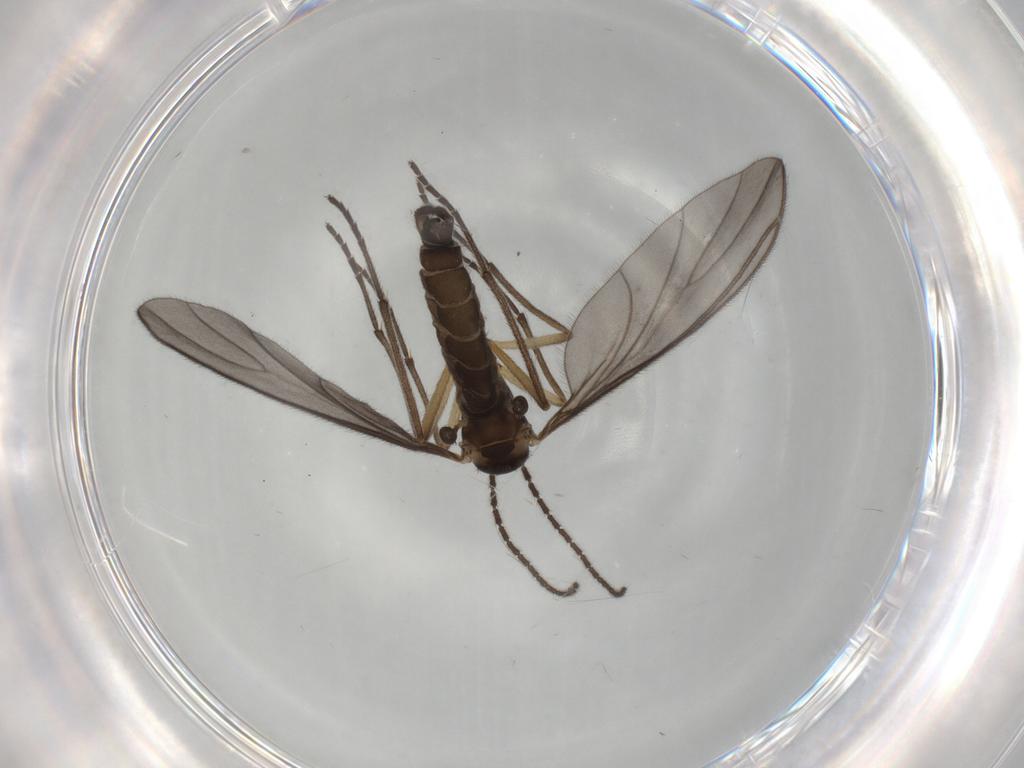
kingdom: Animalia
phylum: Arthropoda
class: Insecta
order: Diptera
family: Sciaridae
